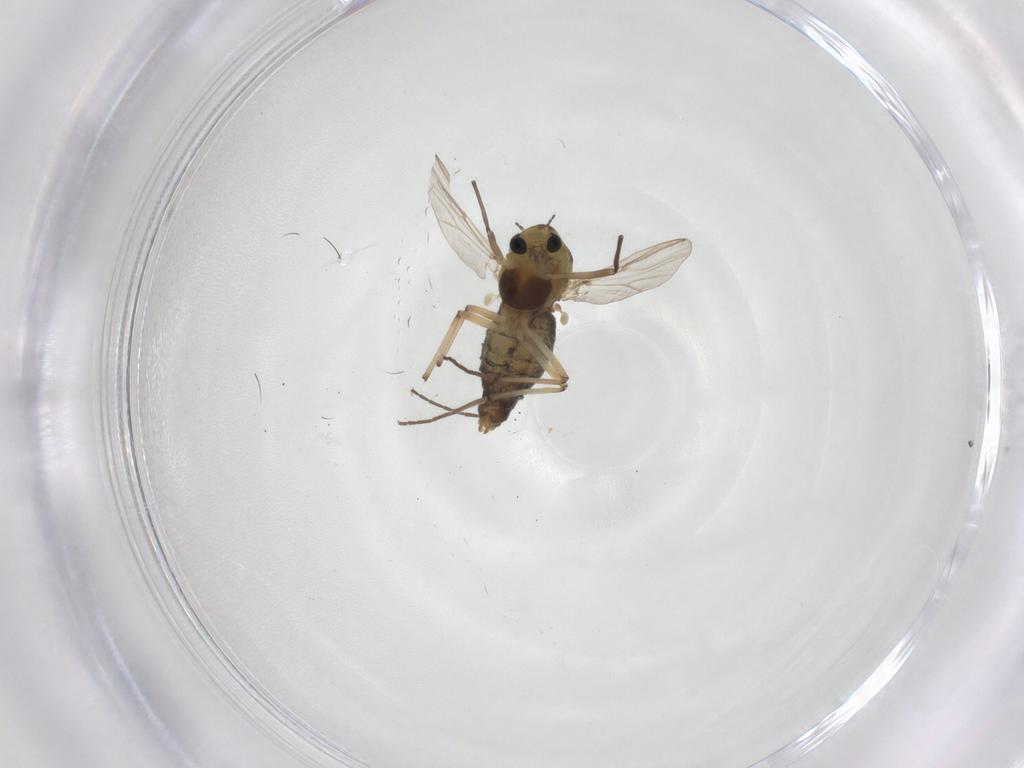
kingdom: Animalia
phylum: Arthropoda
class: Insecta
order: Diptera
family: Chironomidae
